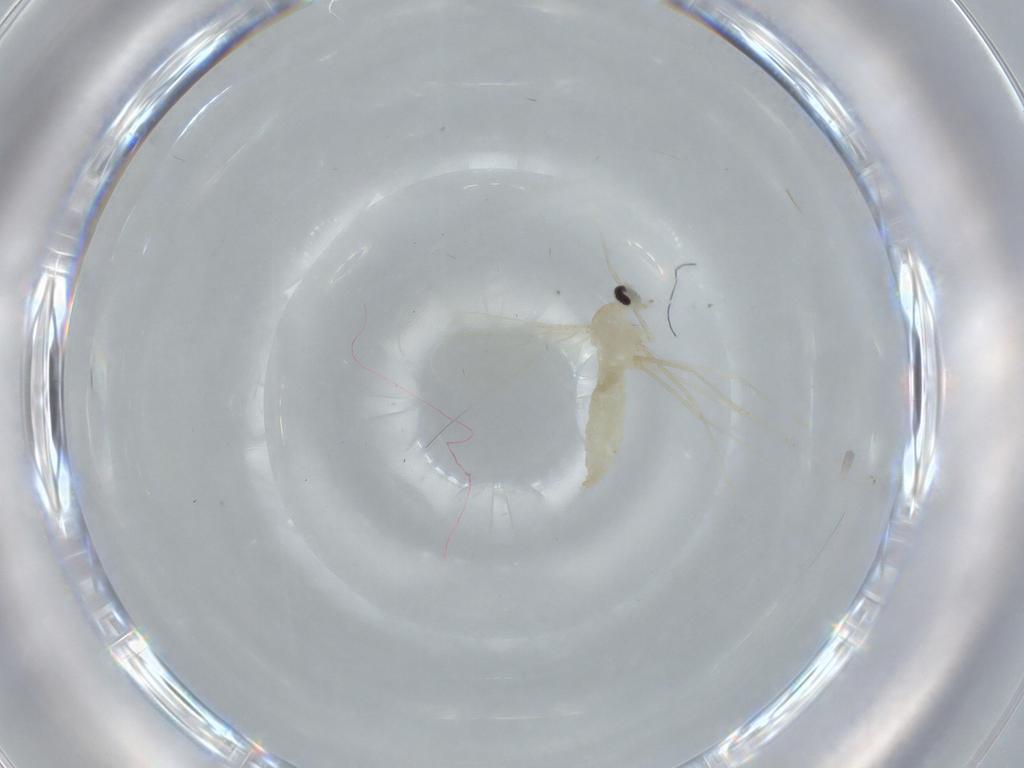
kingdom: Animalia
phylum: Arthropoda
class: Insecta
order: Diptera
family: Cecidomyiidae
